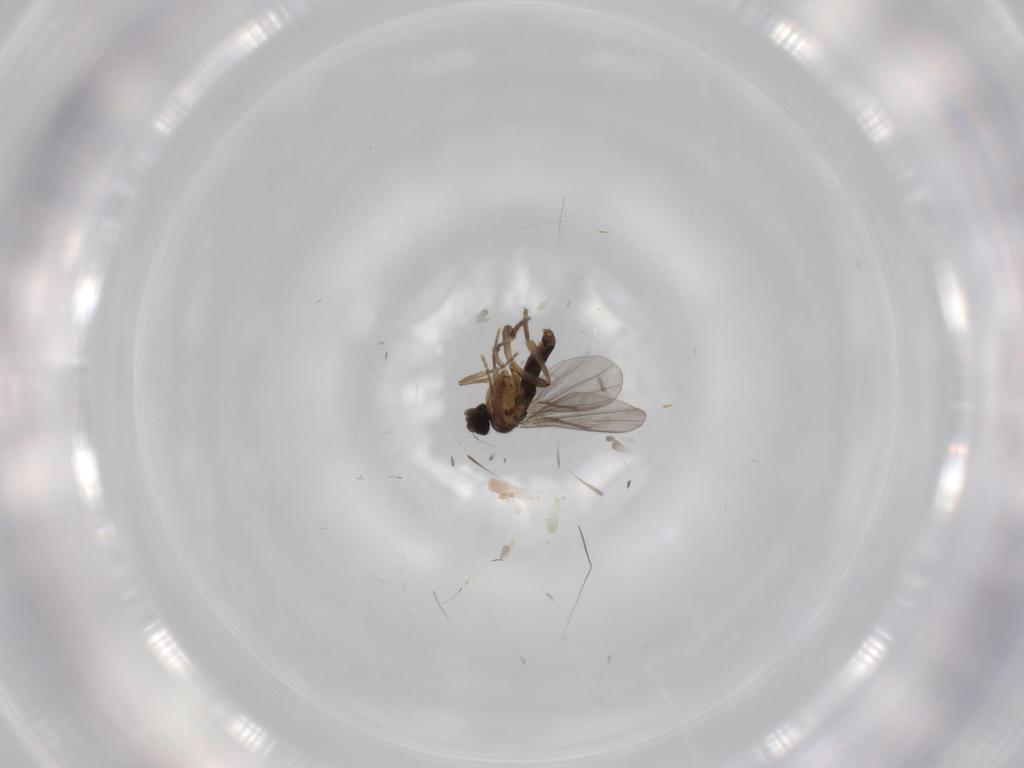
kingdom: Animalia
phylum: Arthropoda
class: Insecta
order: Diptera
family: Phoridae
